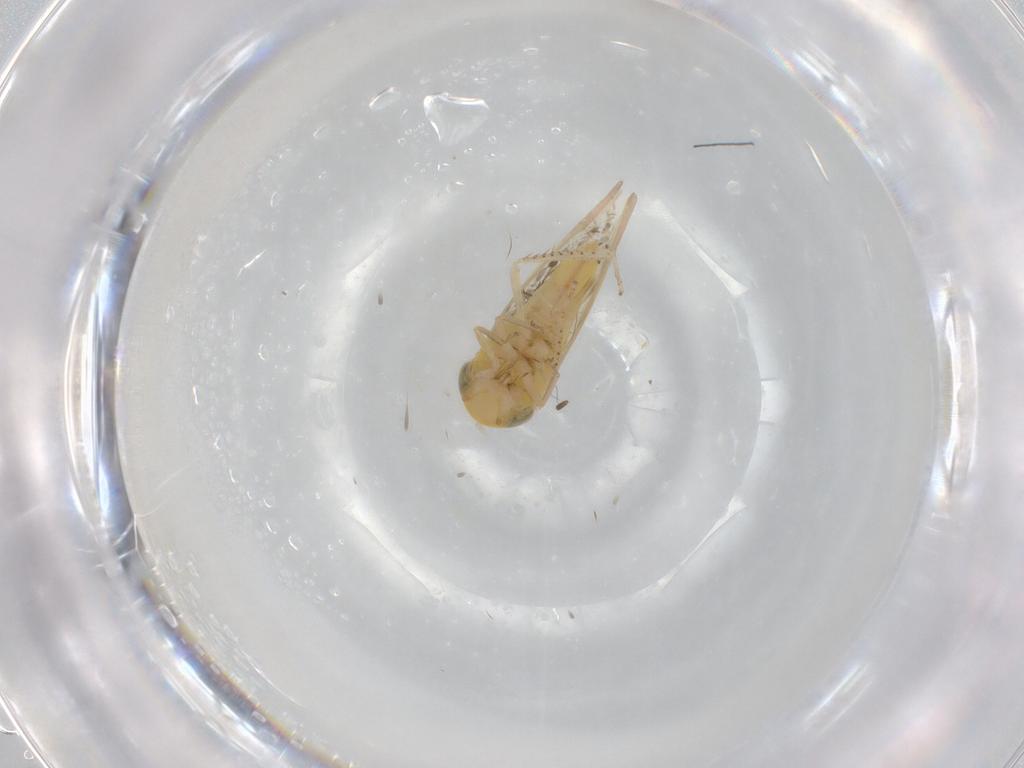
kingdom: Animalia
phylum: Arthropoda
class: Insecta
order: Hemiptera
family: Cicadellidae
